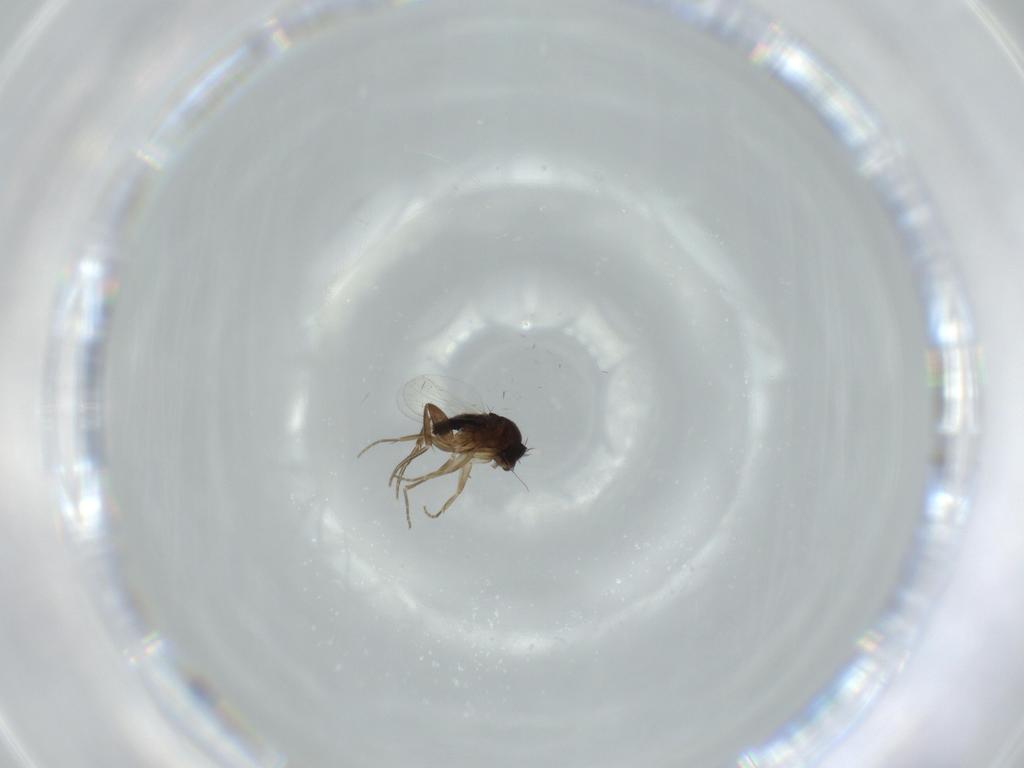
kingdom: Animalia
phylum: Arthropoda
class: Insecta
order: Diptera
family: Phoridae
